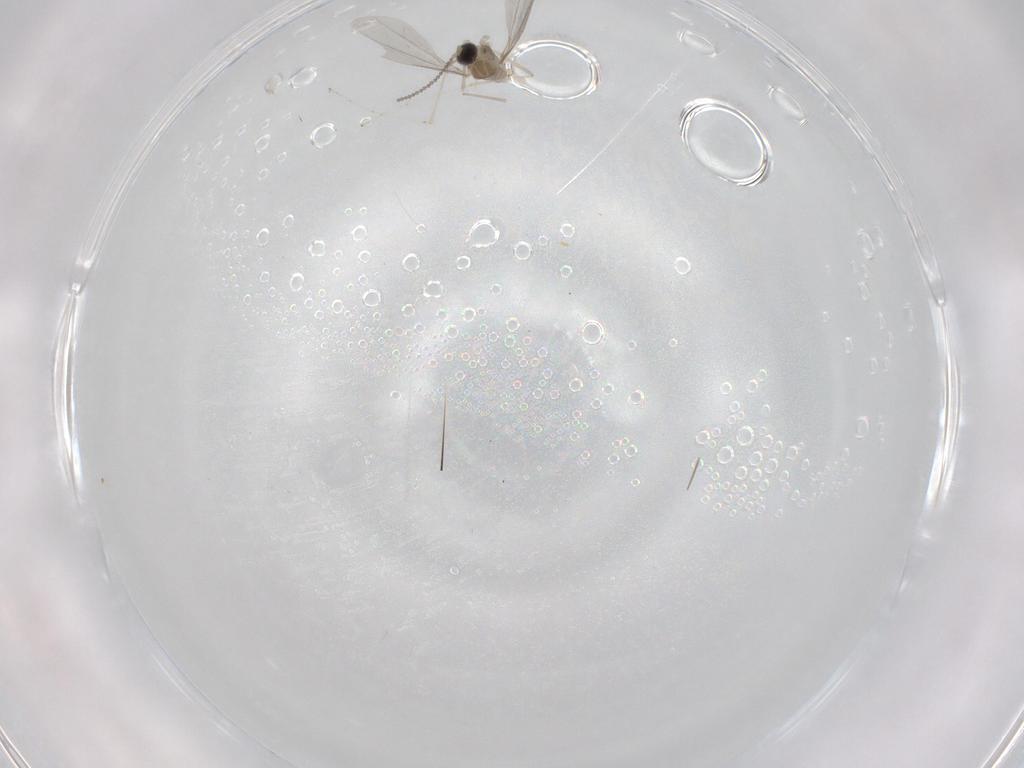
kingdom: Animalia
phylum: Arthropoda
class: Insecta
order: Diptera
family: Cecidomyiidae
